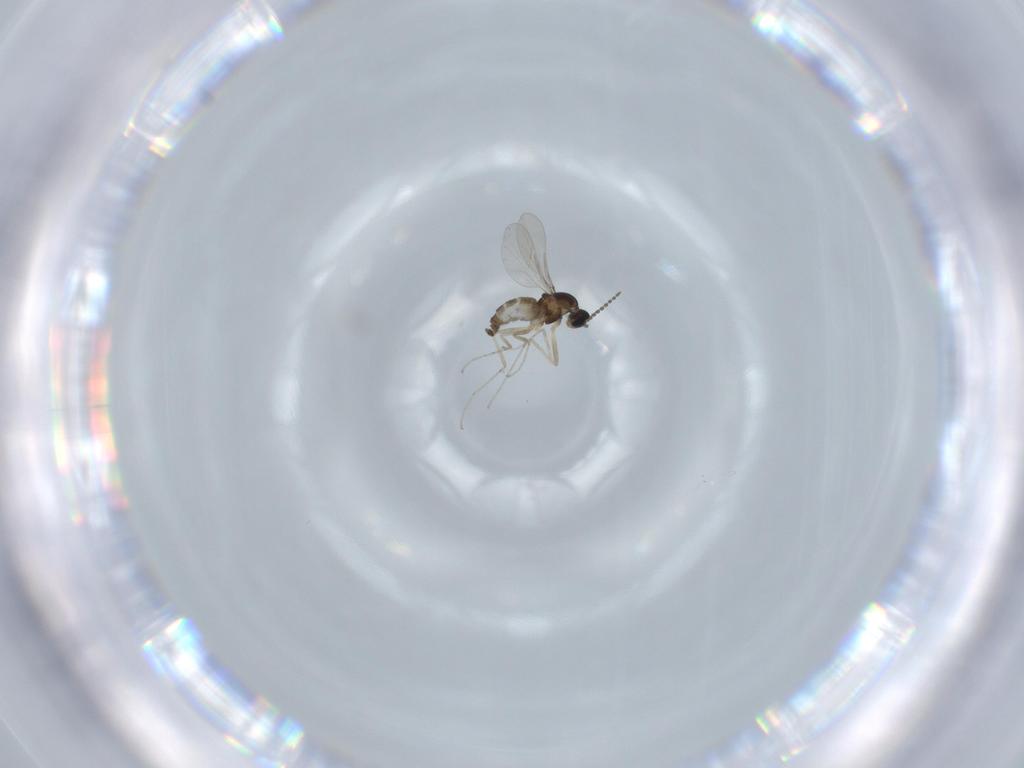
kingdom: Animalia
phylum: Arthropoda
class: Insecta
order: Diptera
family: Cecidomyiidae
